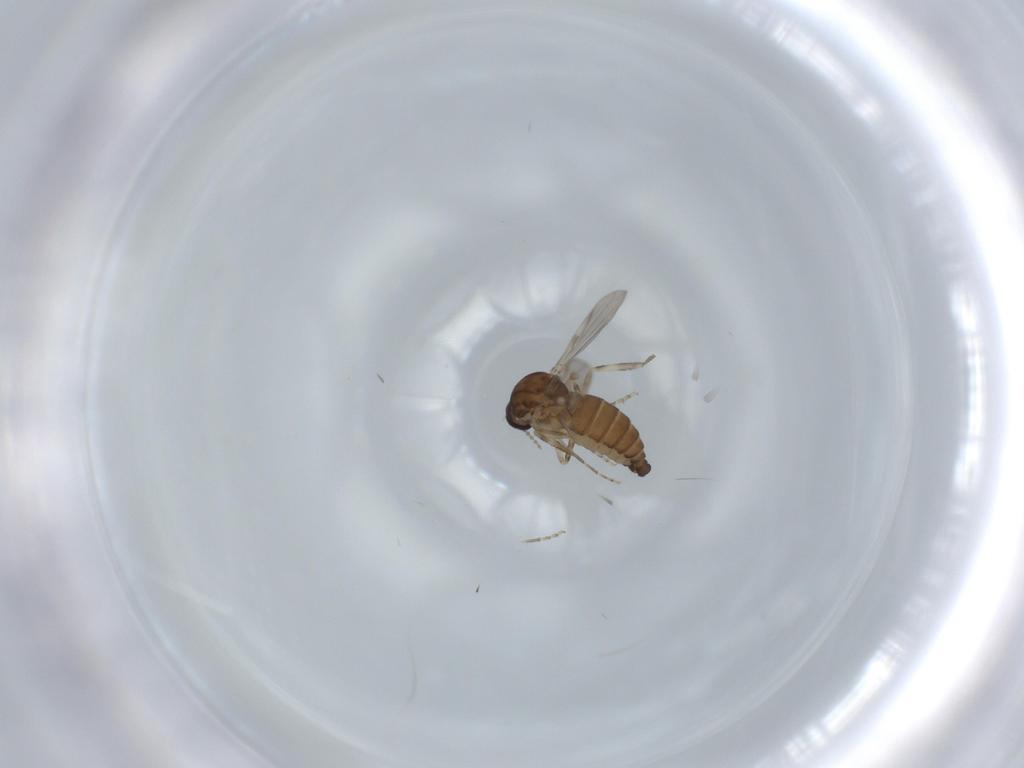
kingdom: Animalia
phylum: Arthropoda
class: Insecta
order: Diptera
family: Ceratopogonidae
